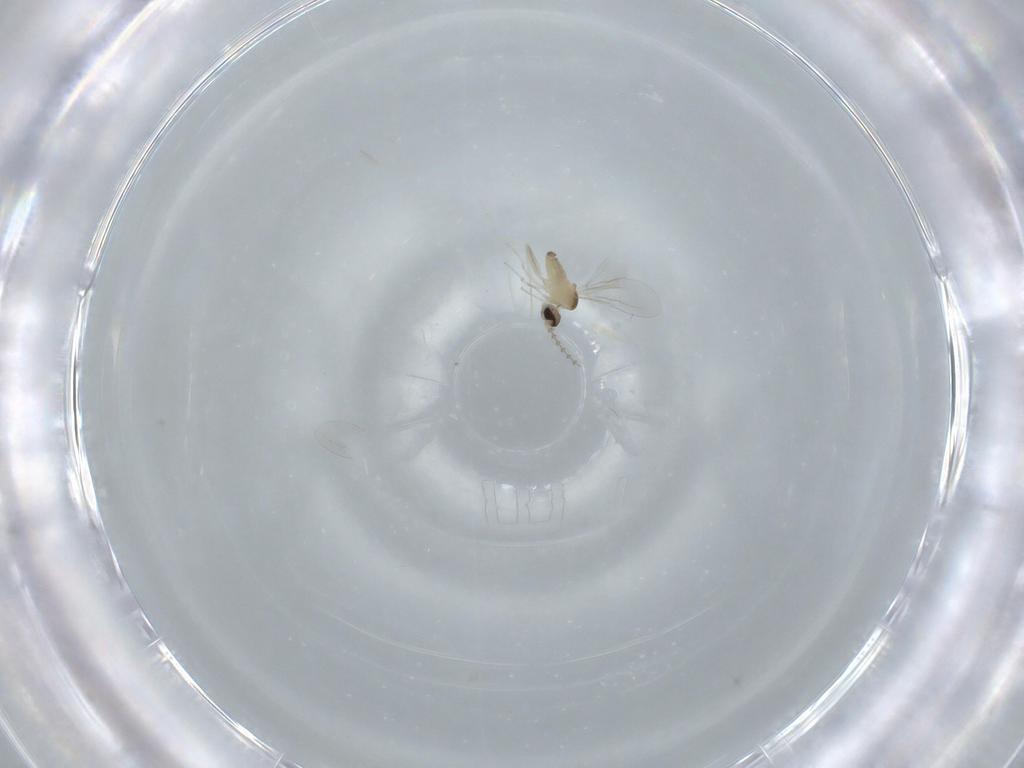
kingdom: Animalia
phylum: Arthropoda
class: Insecta
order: Diptera
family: Cecidomyiidae
